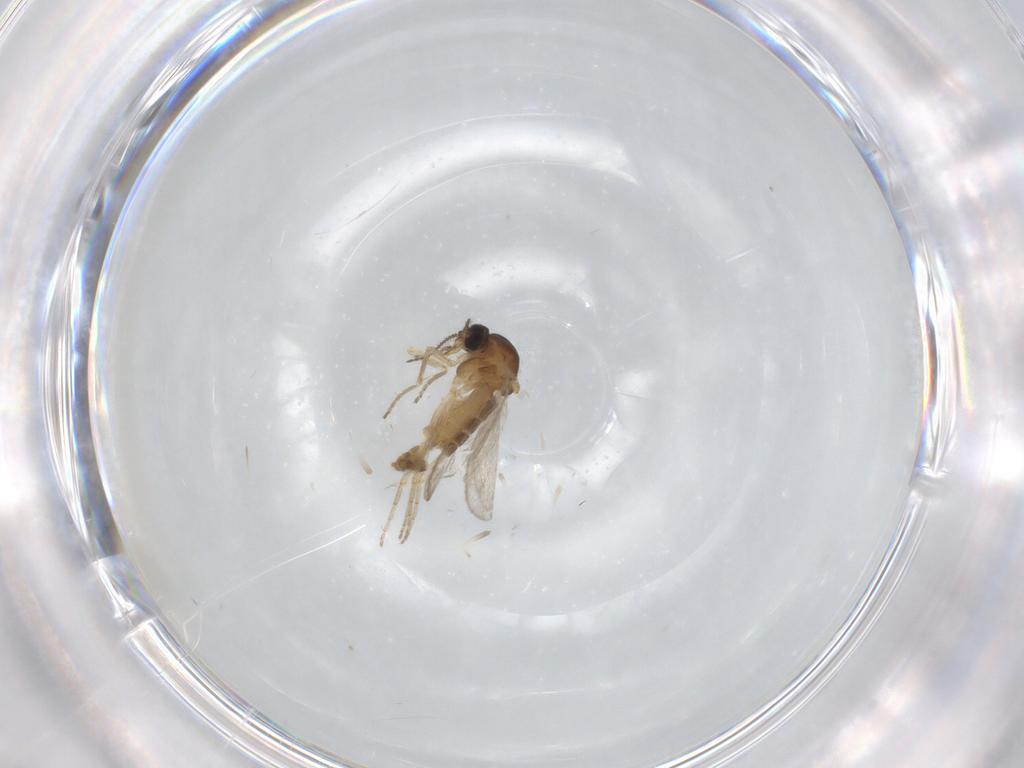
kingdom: Animalia
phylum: Arthropoda
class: Insecta
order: Diptera
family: Ceratopogonidae
